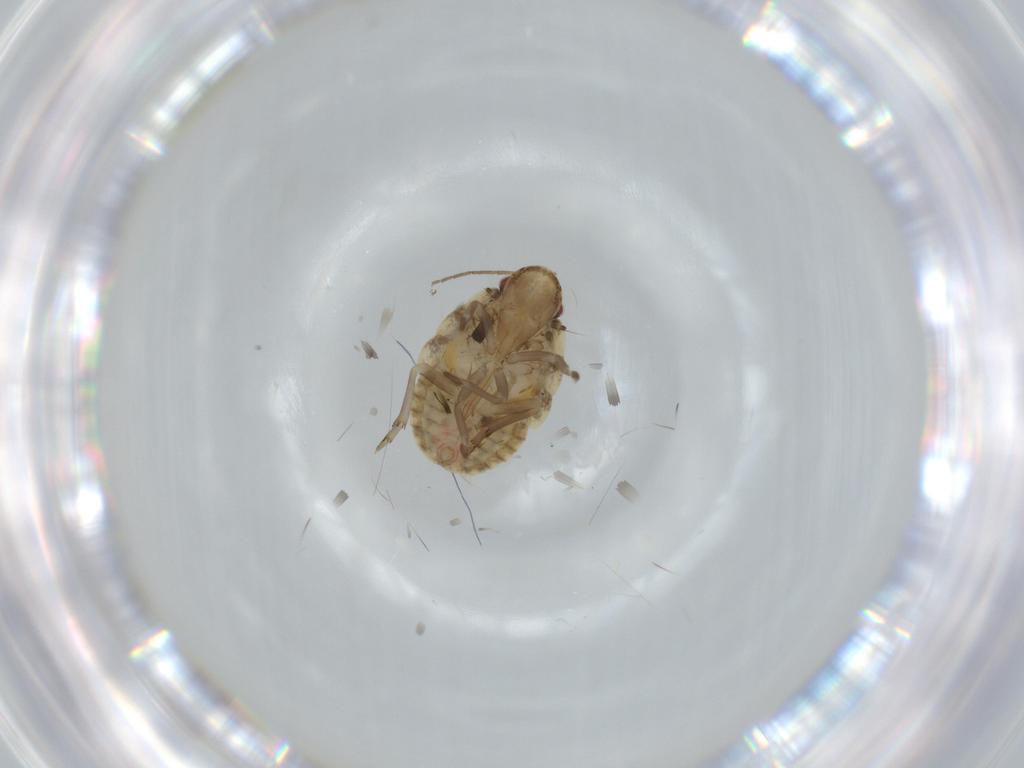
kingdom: Animalia
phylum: Arthropoda
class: Insecta
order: Hemiptera
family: Flatidae
